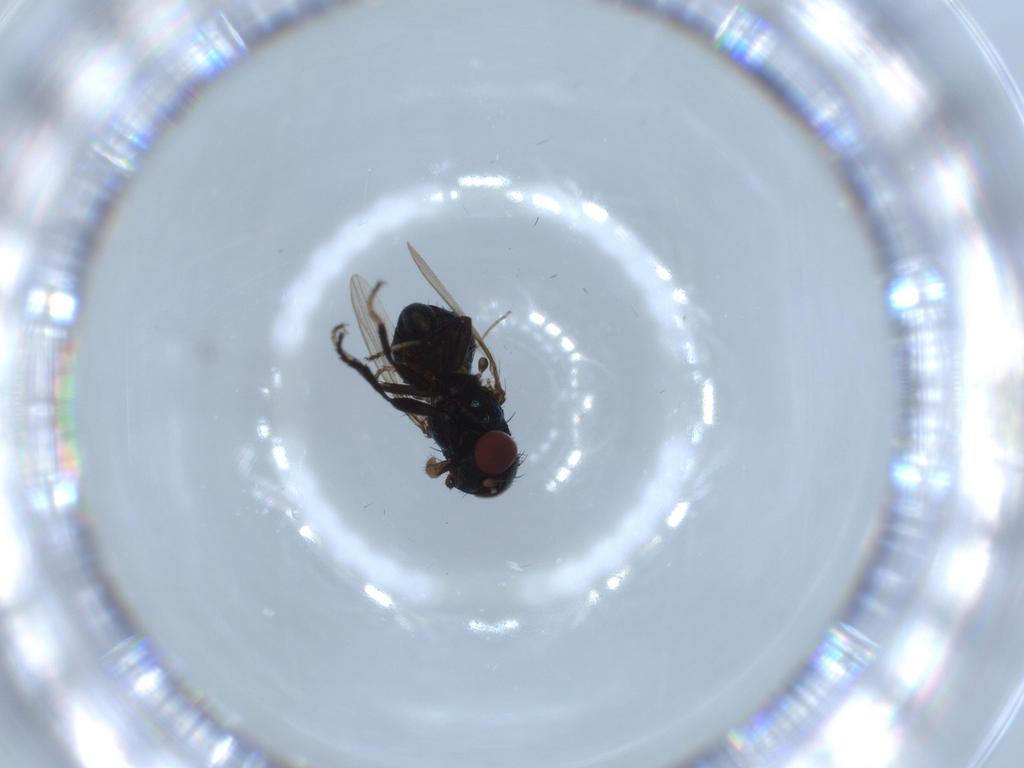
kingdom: Animalia
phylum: Arthropoda
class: Insecta
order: Diptera
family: Drosophilidae
